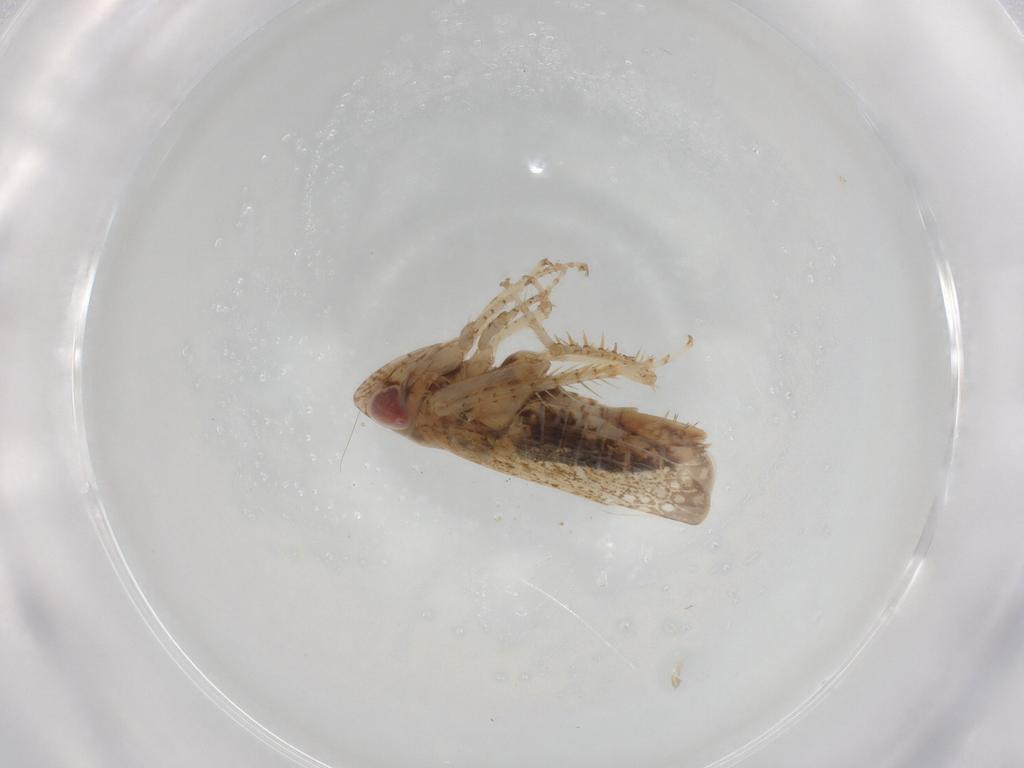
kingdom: Animalia
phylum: Arthropoda
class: Insecta
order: Hemiptera
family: Cicadellidae
